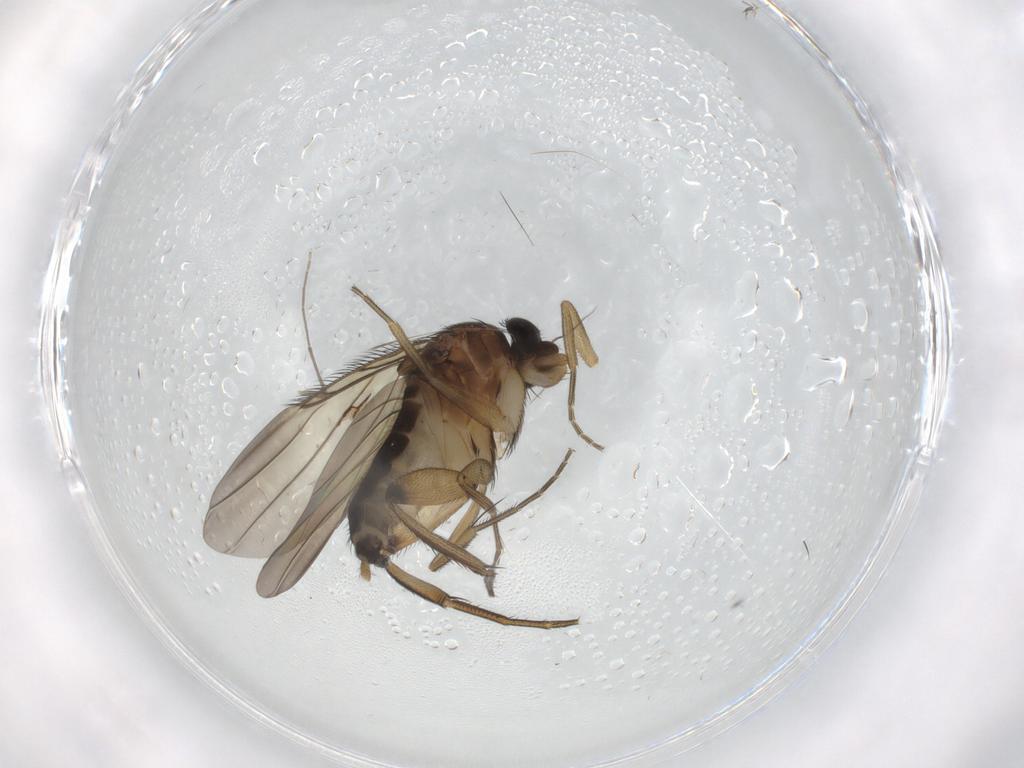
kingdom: Animalia
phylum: Arthropoda
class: Insecta
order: Diptera
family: Phoridae
